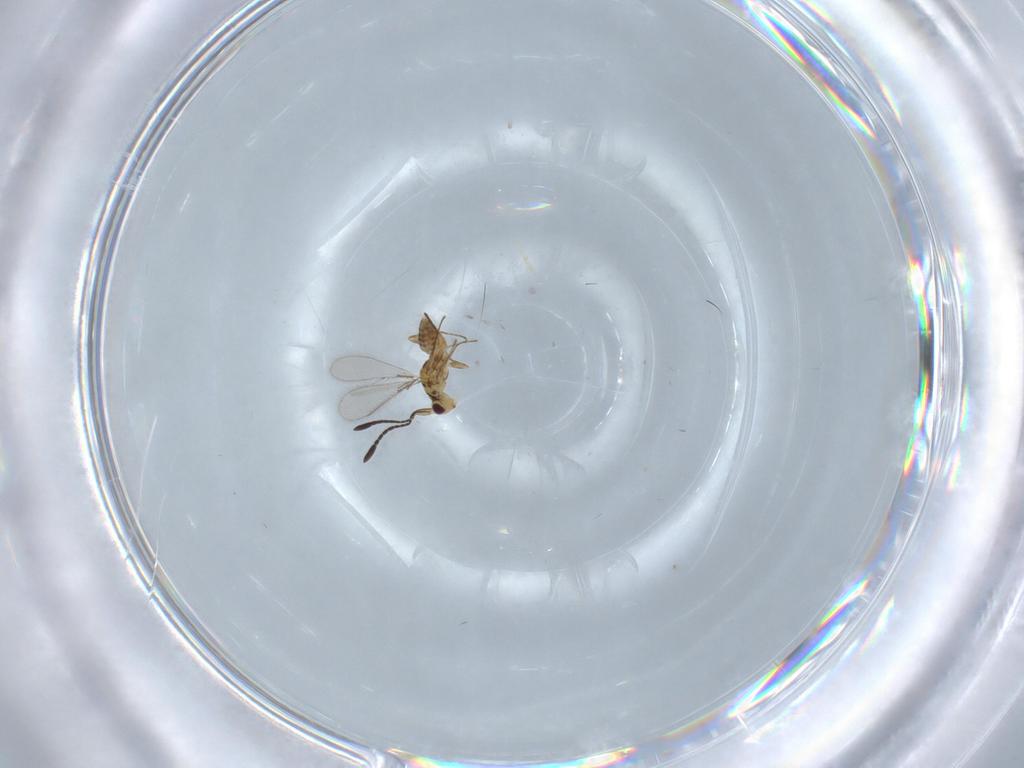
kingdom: Animalia
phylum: Arthropoda
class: Insecta
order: Hymenoptera
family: Mymaridae
